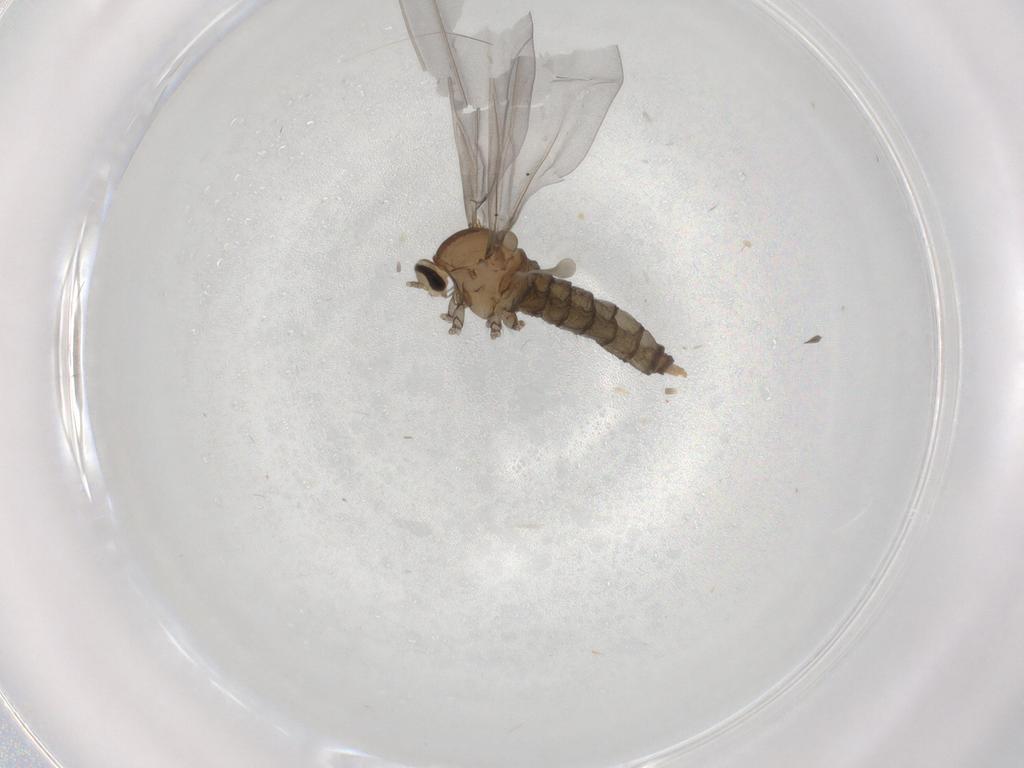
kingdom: Animalia
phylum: Arthropoda
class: Insecta
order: Diptera
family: Cecidomyiidae
